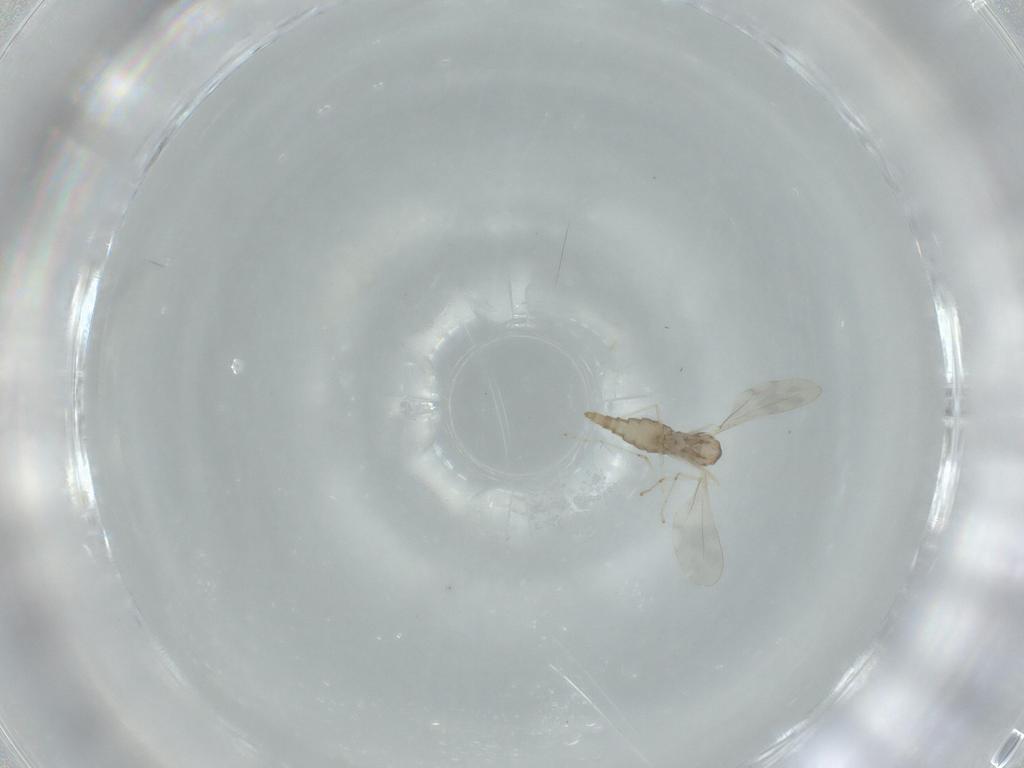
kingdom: Animalia
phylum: Arthropoda
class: Insecta
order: Diptera
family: Cecidomyiidae
